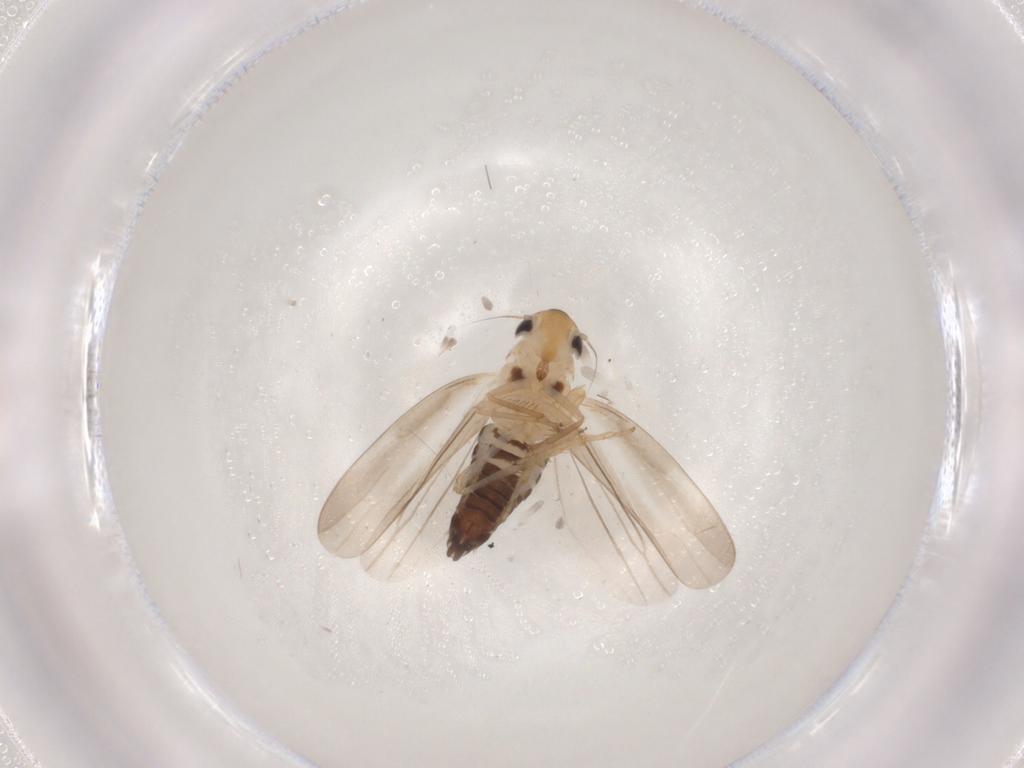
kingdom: Animalia
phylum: Arthropoda
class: Insecta
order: Hemiptera
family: Cicadellidae
